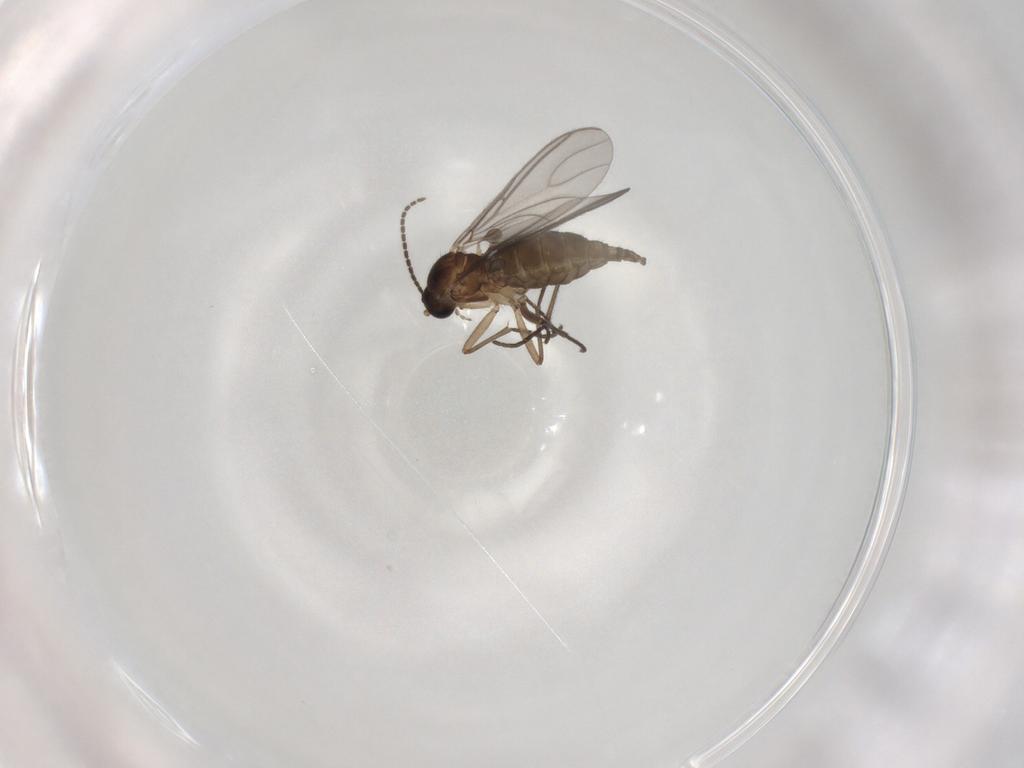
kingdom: Animalia
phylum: Arthropoda
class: Insecta
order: Diptera
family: Sciaridae
